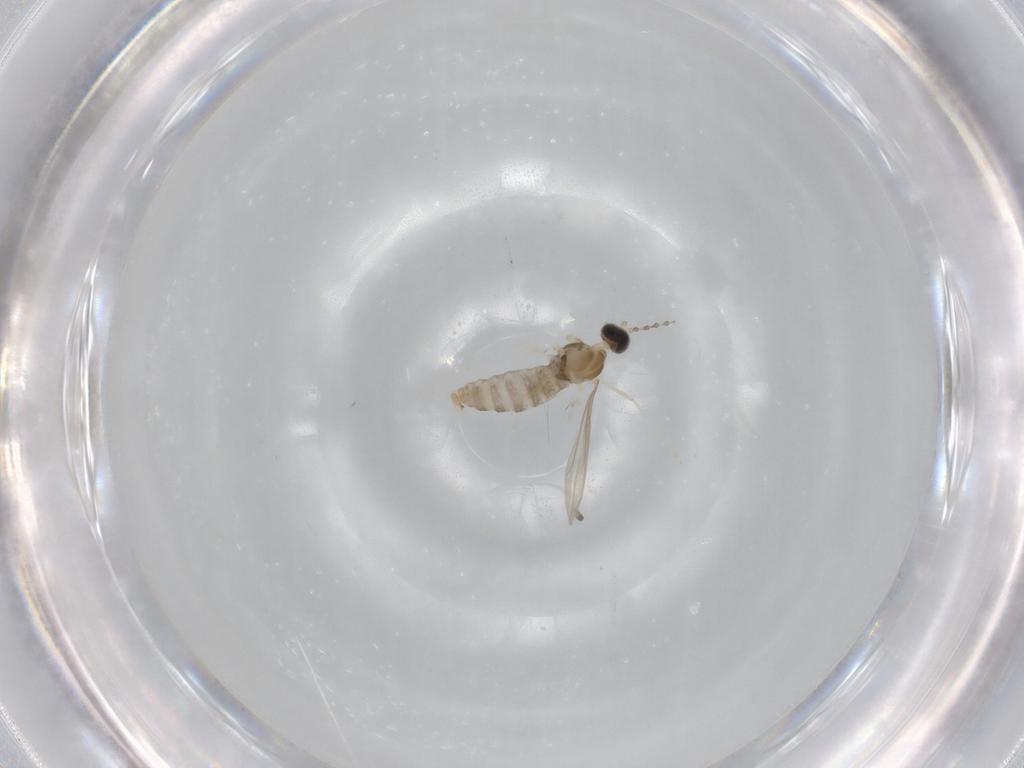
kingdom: Animalia
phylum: Arthropoda
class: Insecta
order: Diptera
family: Cecidomyiidae
